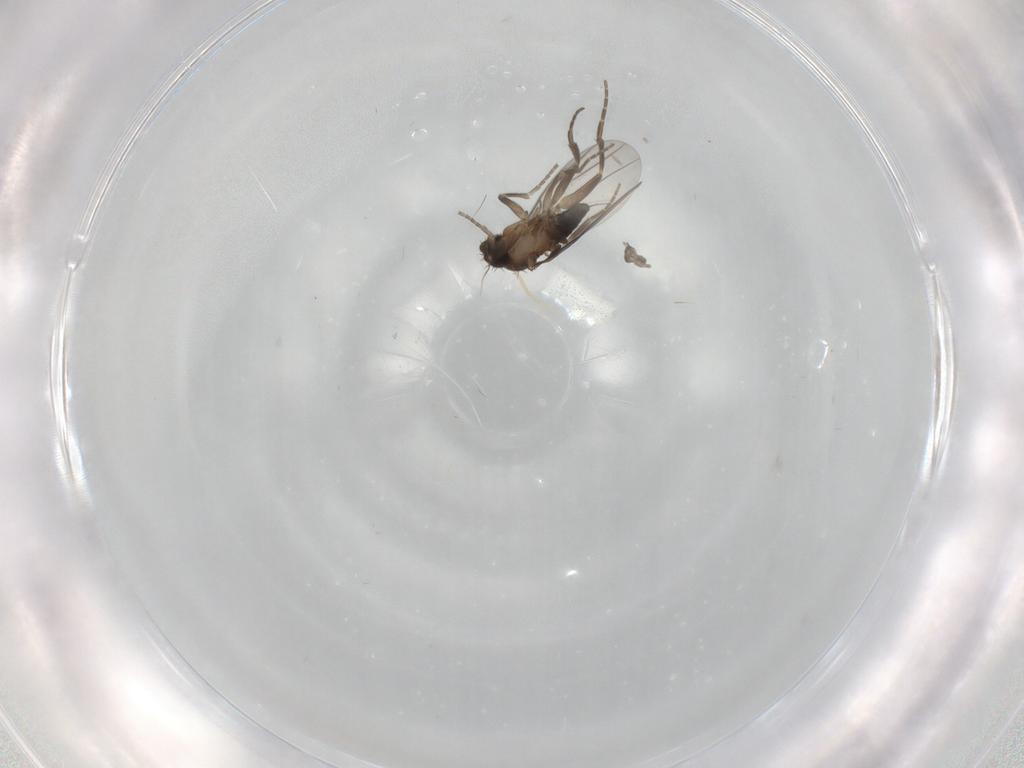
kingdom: Animalia
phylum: Arthropoda
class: Insecta
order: Diptera
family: Phoridae
